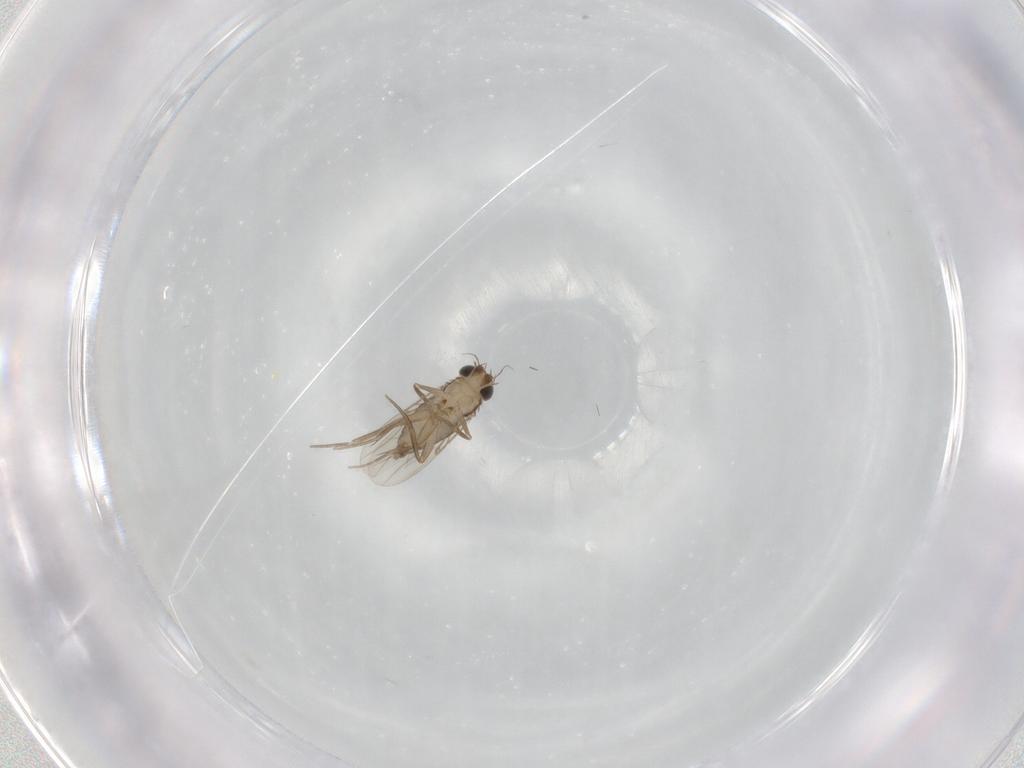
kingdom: Animalia
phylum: Arthropoda
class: Insecta
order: Diptera
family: Phoridae
